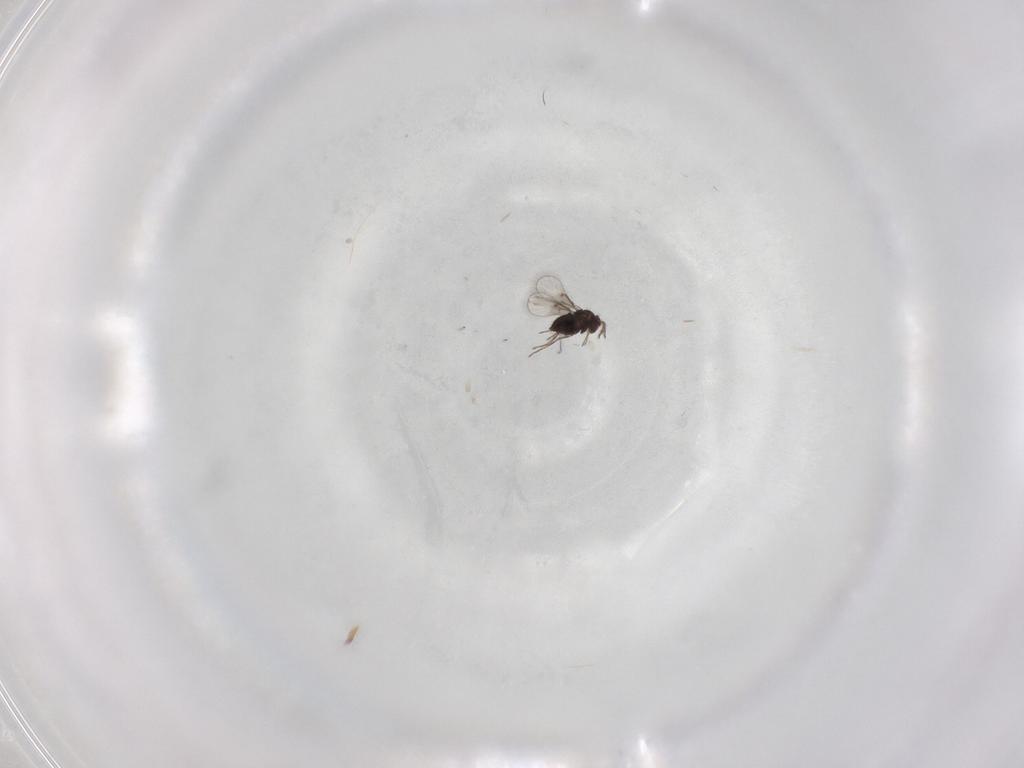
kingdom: Animalia
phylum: Arthropoda
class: Insecta
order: Hymenoptera
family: Trichogrammatidae
